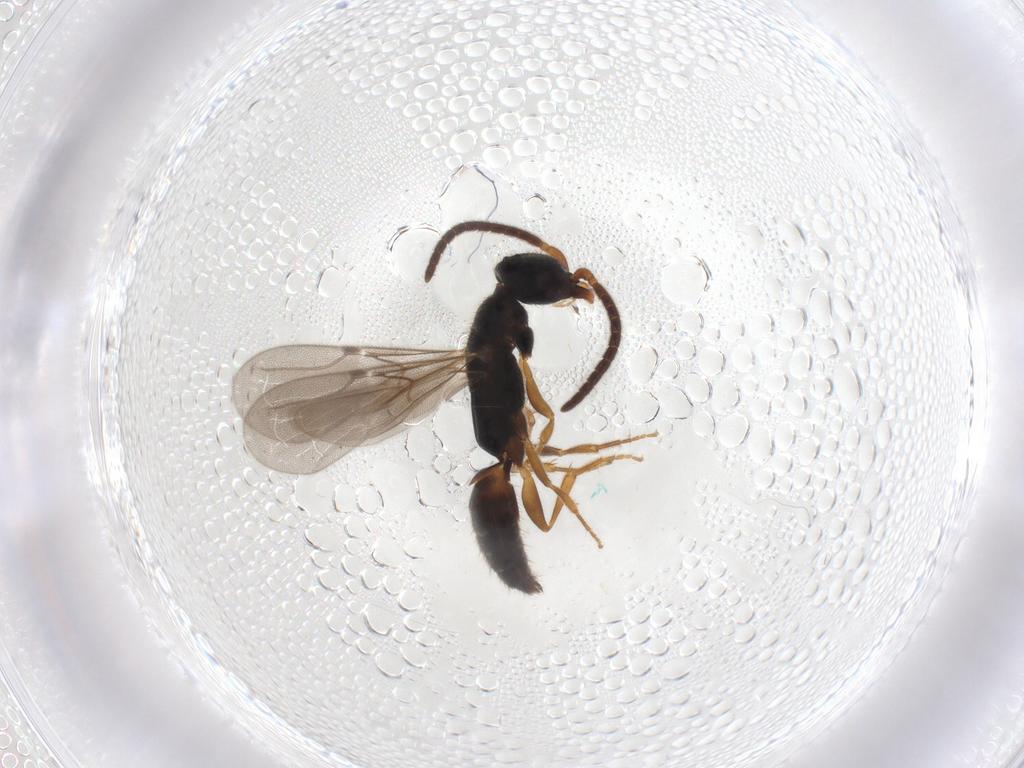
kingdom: Animalia
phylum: Arthropoda
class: Insecta
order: Hymenoptera
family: Bethylidae
